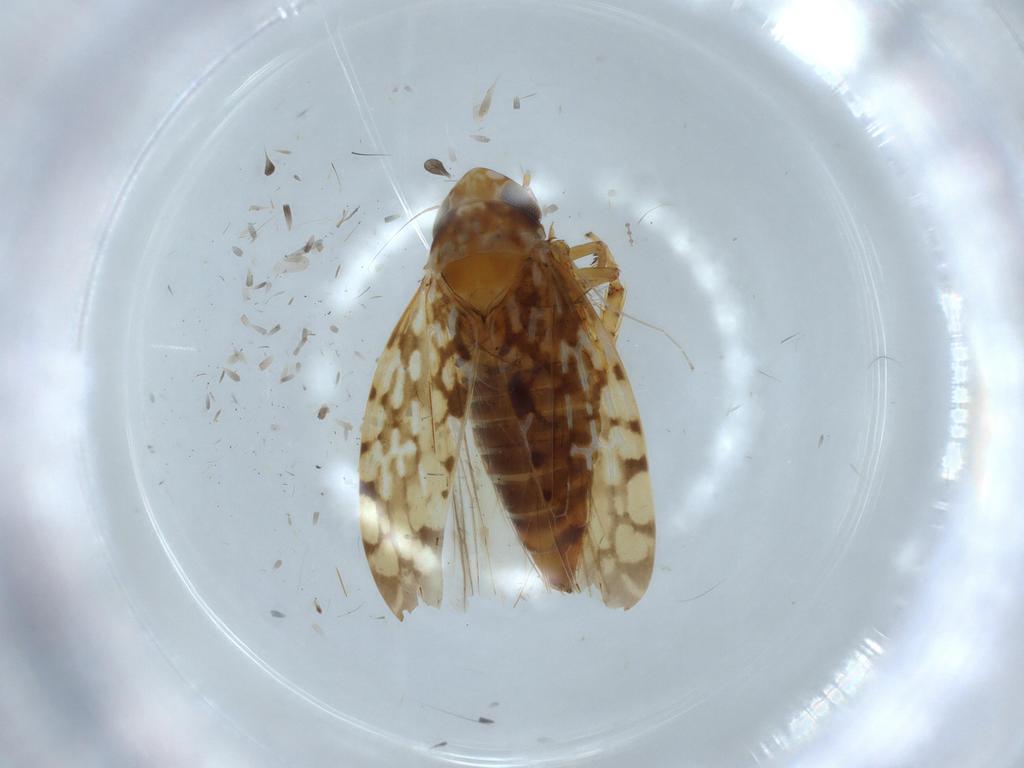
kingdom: Animalia
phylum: Arthropoda
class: Insecta
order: Hemiptera
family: Cicadellidae
